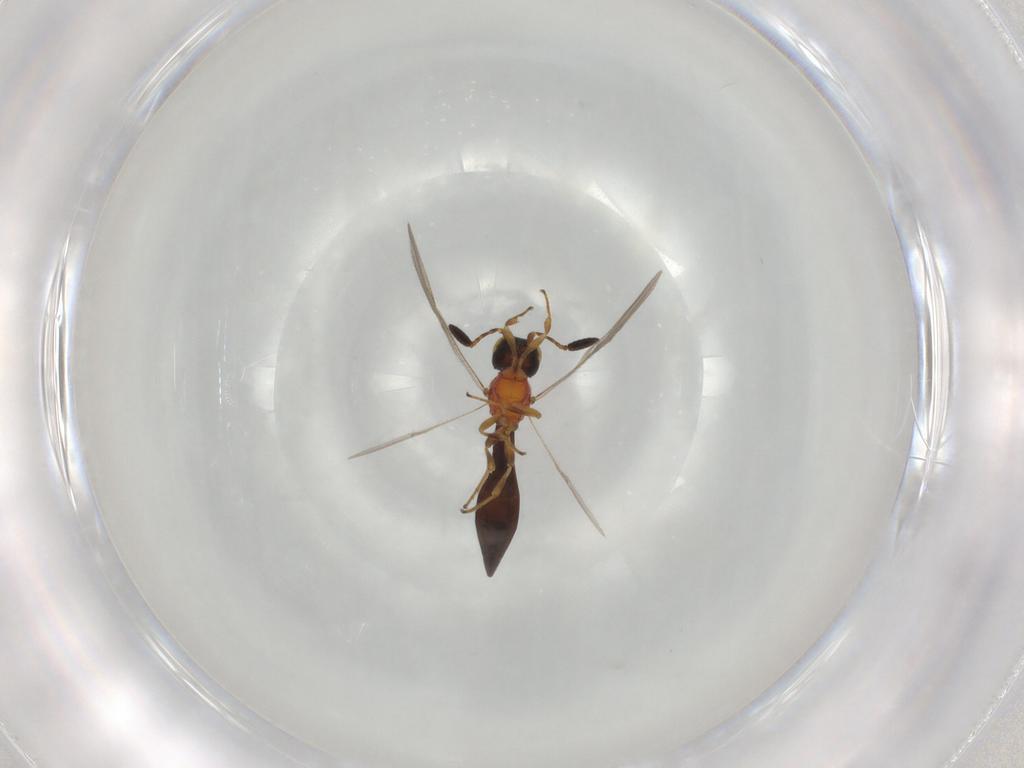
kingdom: Animalia
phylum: Arthropoda
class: Insecta
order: Hymenoptera
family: Scelionidae
